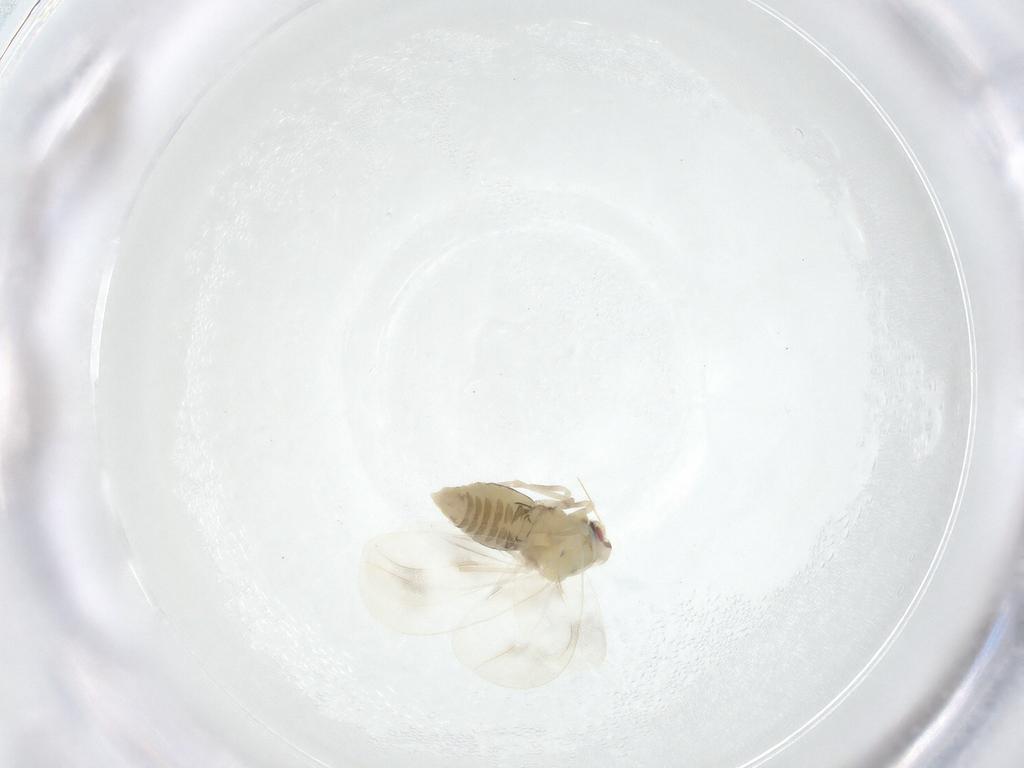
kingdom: Animalia
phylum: Arthropoda
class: Insecta
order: Hemiptera
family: Aleyrodidae
